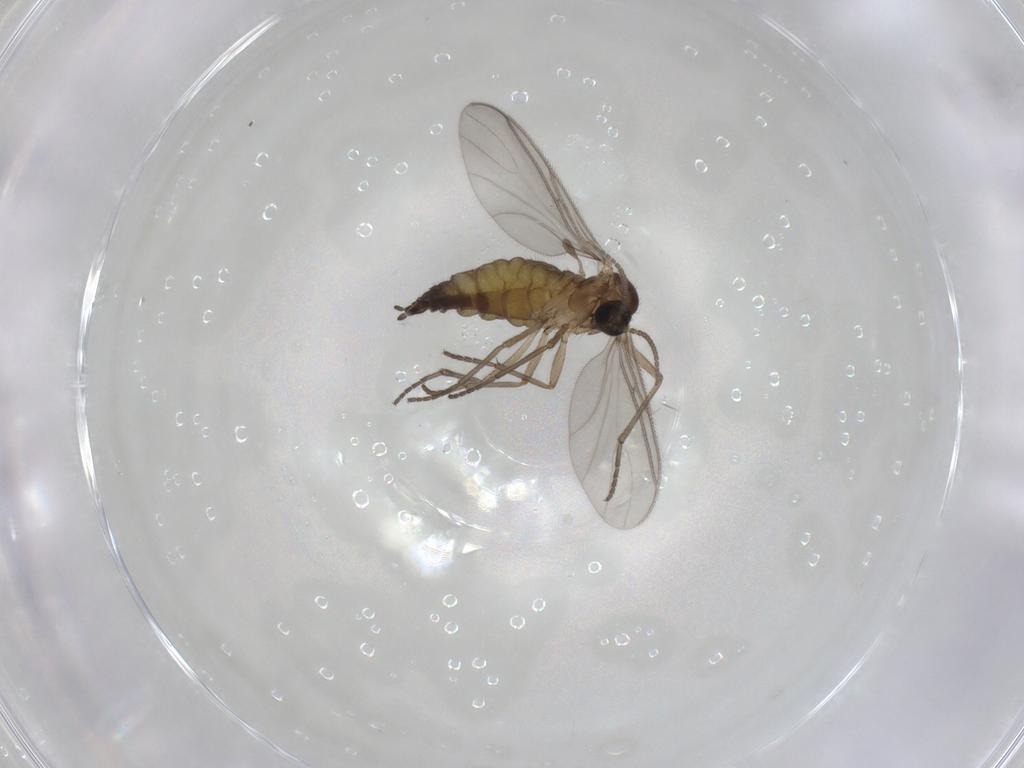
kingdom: Animalia
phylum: Arthropoda
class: Insecta
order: Diptera
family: Sciaridae
